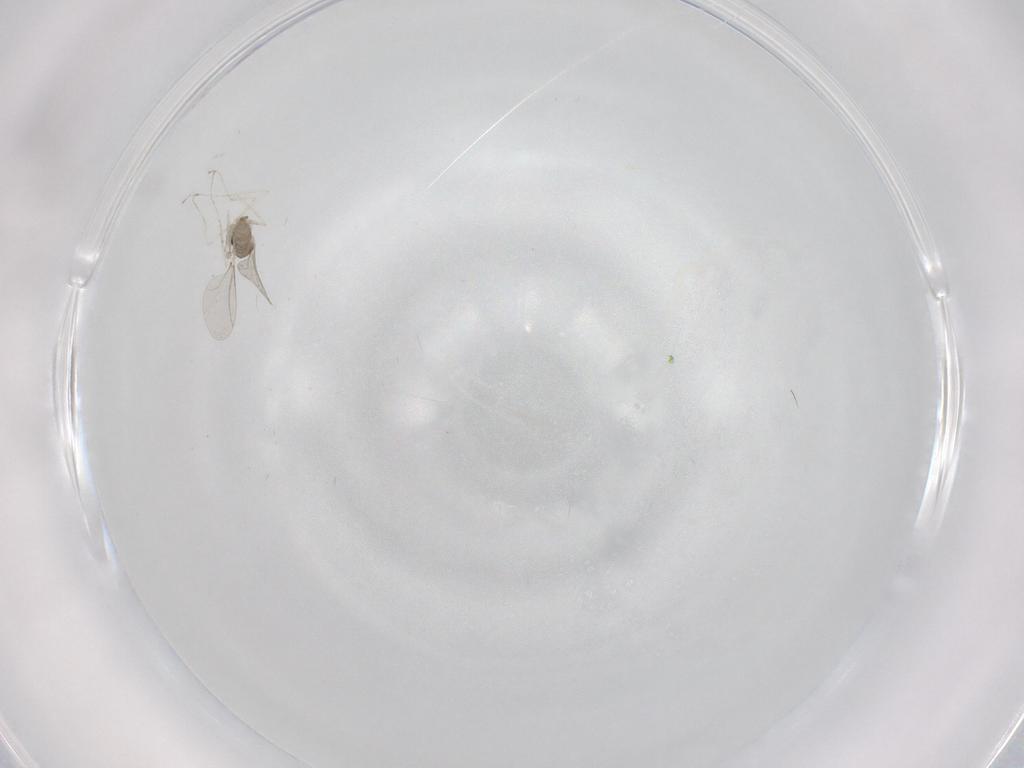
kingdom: Animalia
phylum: Arthropoda
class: Insecta
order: Diptera
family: Cecidomyiidae
